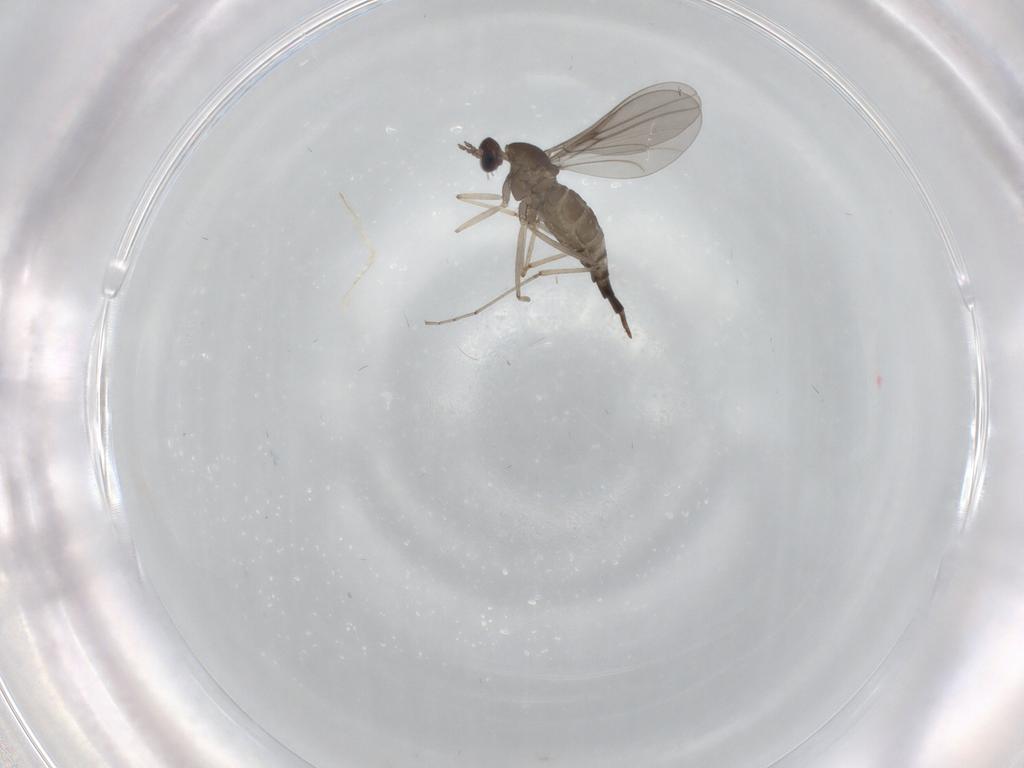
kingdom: Animalia
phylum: Arthropoda
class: Insecta
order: Diptera
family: Cecidomyiidae
